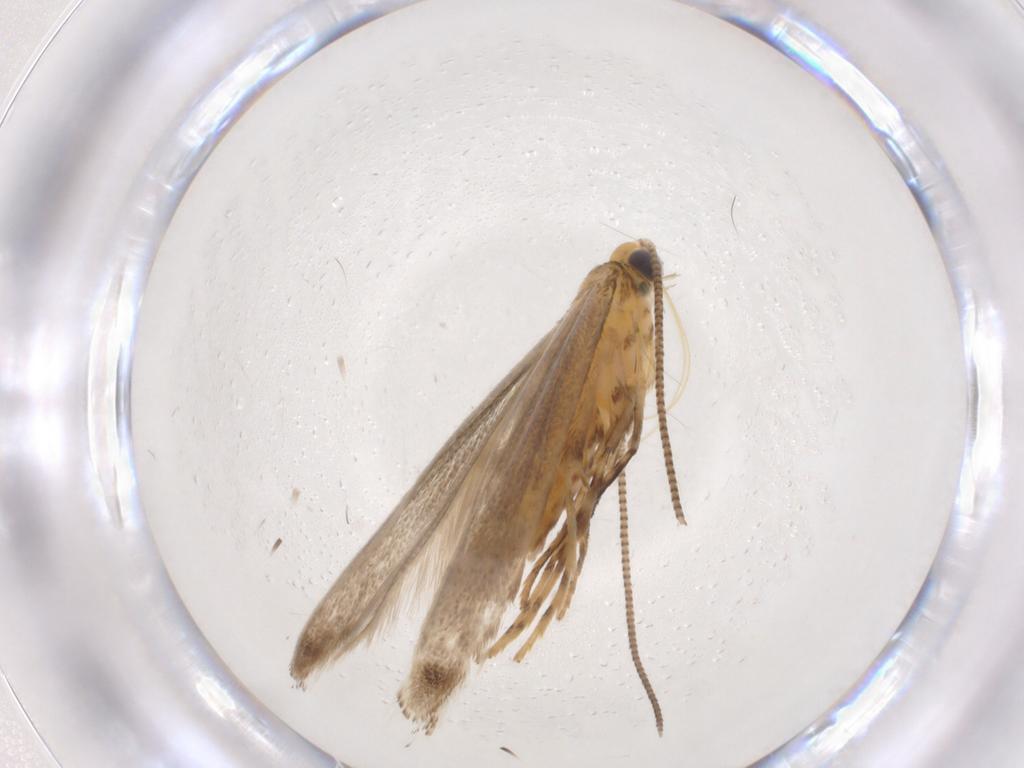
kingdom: Animalia
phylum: Arthropoda
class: Insecta
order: Lepidoptera
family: Gracillariidae
